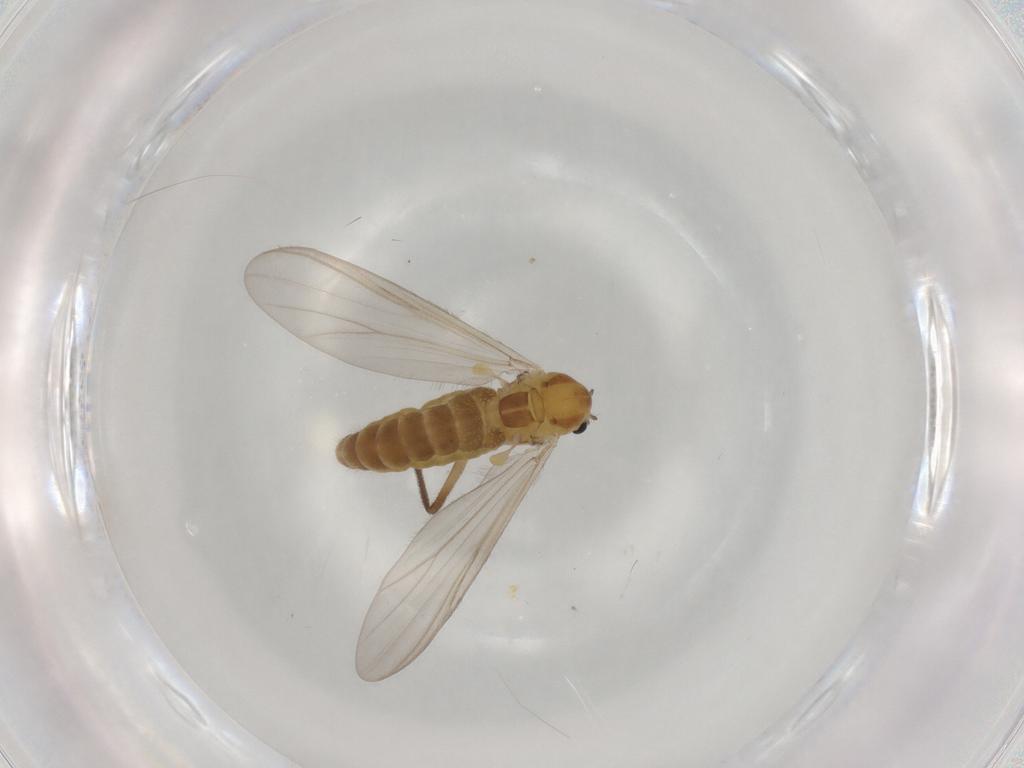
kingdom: Animalia
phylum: Arthropoda
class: Insecta
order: Diptera
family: Chironomidae
